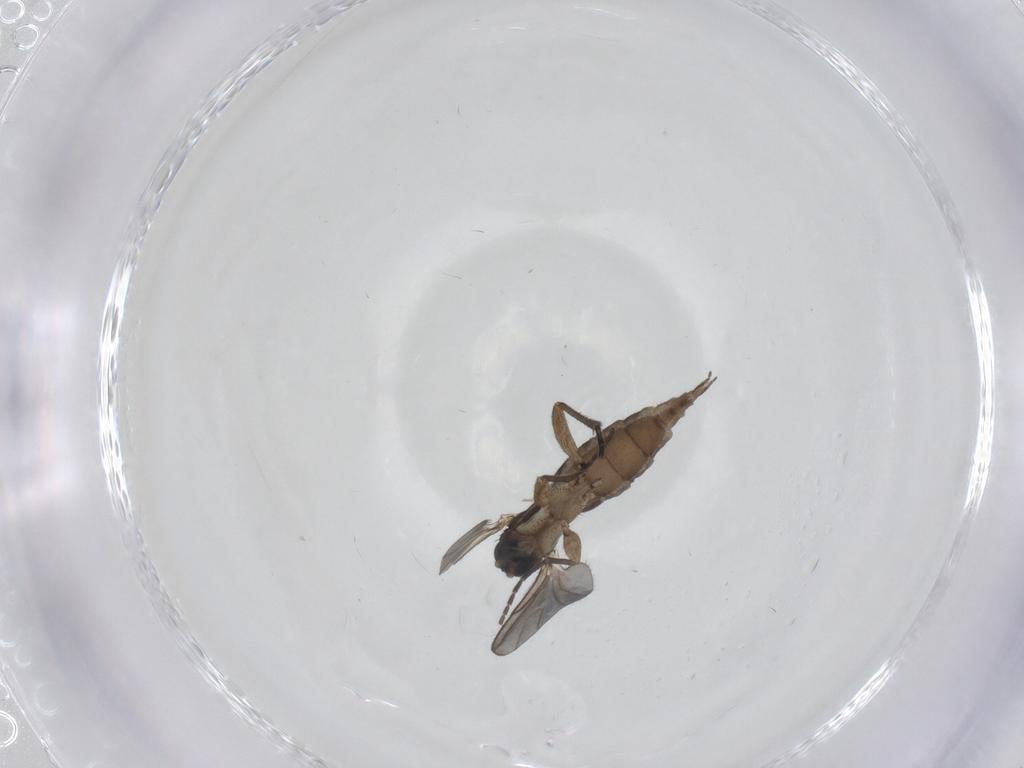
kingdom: Animalia
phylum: Arthropoda
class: Insecta
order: Diptera
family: Sciaridae
